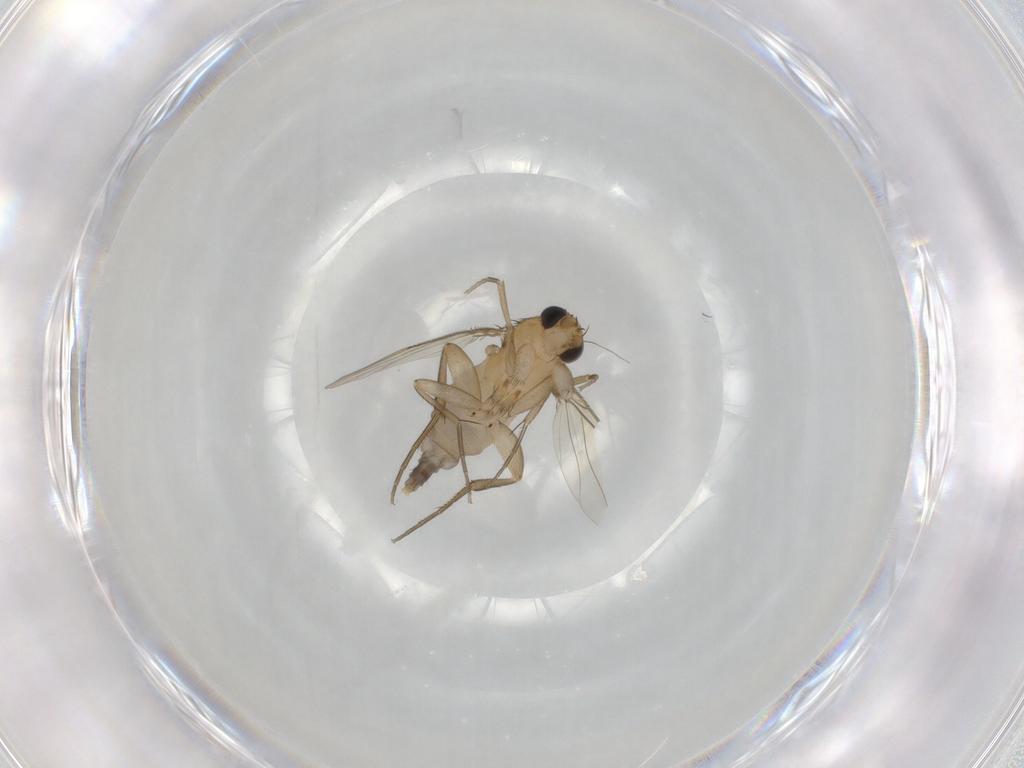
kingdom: Animalia
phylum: Arthropoda
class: Insecta
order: Diptera
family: Phoridae
